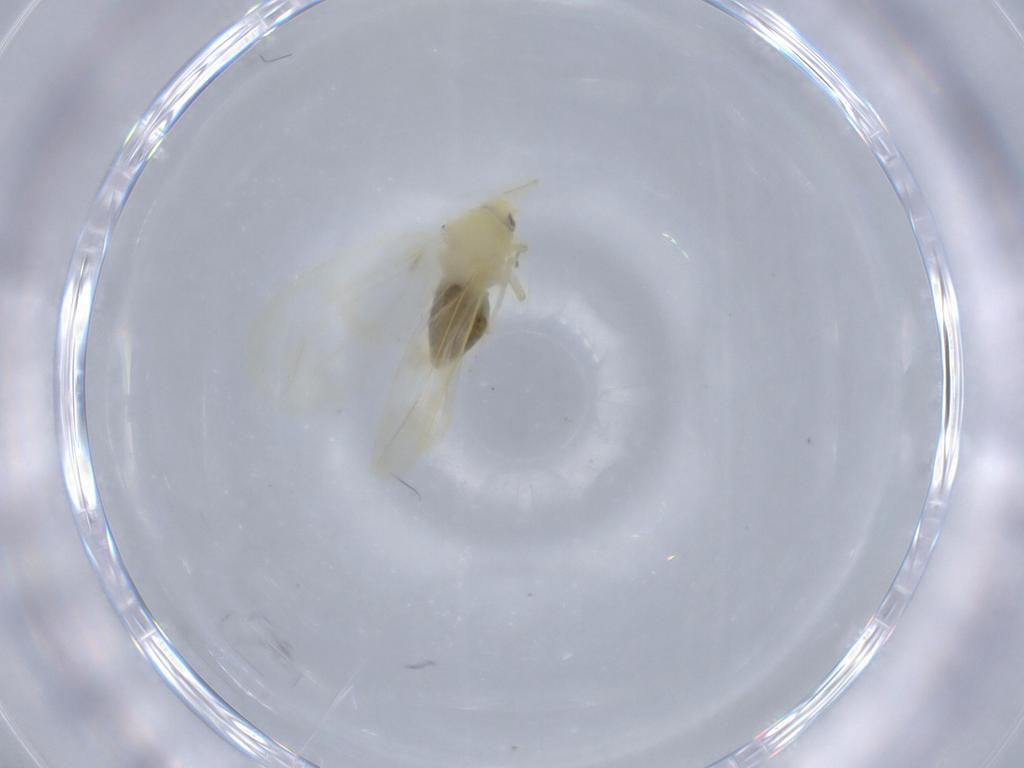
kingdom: Animalia
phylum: Arthropoda
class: Insecta
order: Hemiptera
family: Aleyrodidae
